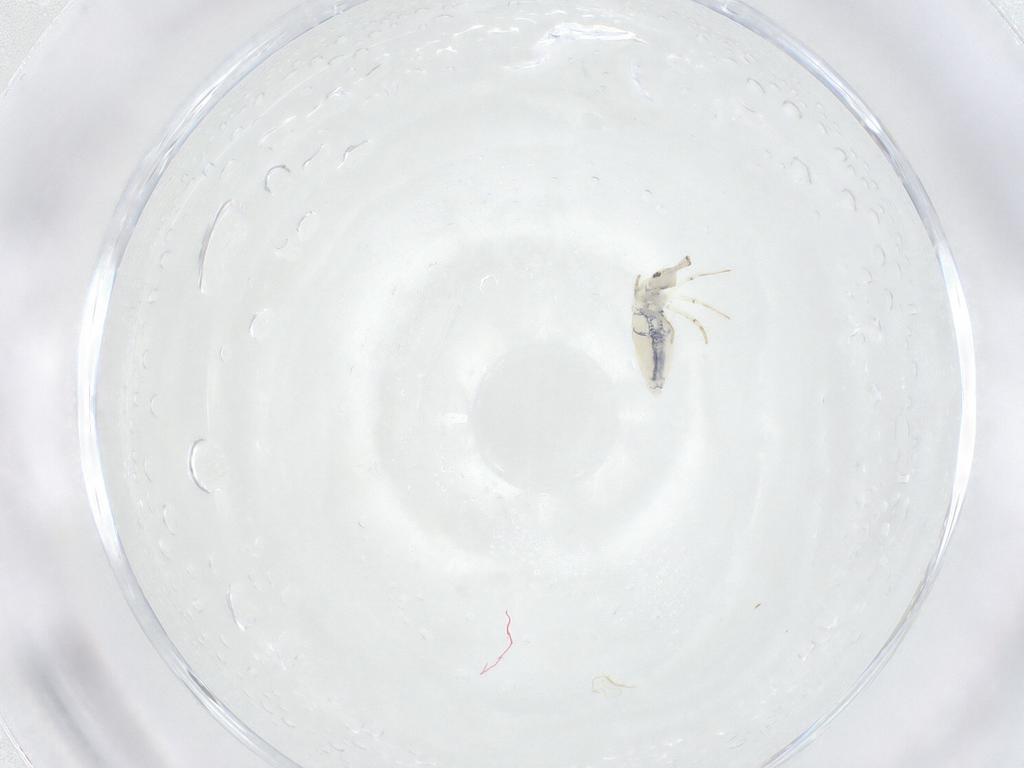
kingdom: Animalia
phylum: Arthropoda
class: Collembola
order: Entomobryomorpha
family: Paronellidae
